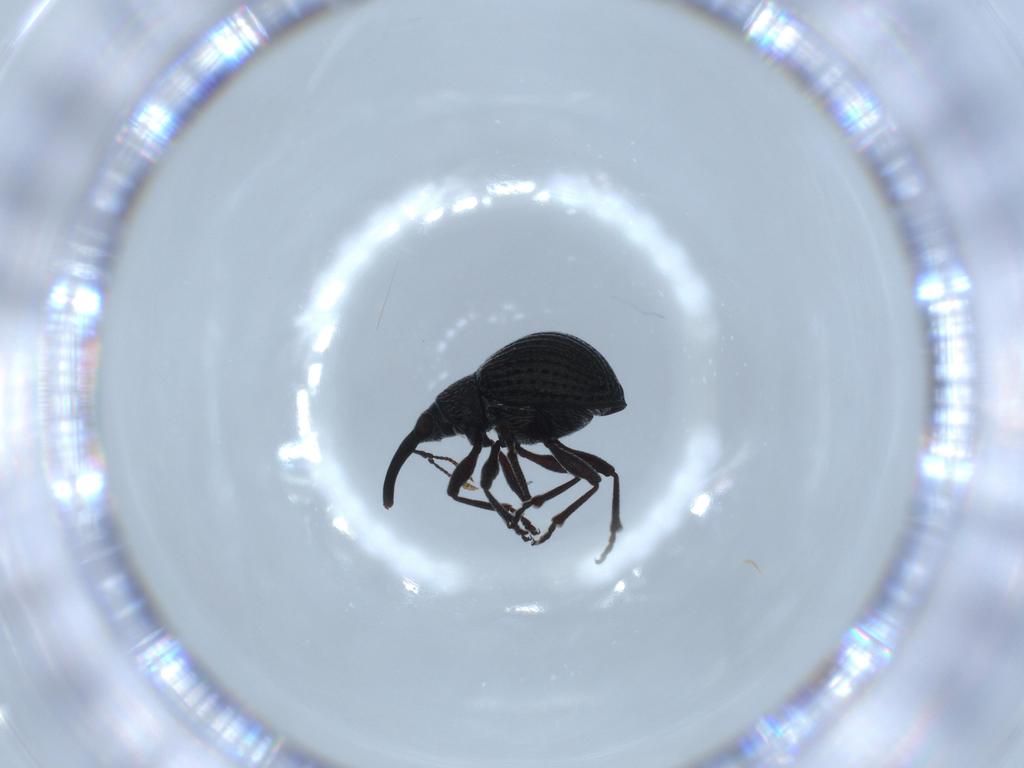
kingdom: Animalia
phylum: Arthropoda
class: Insecta
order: Coleoptera
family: Brentidae
